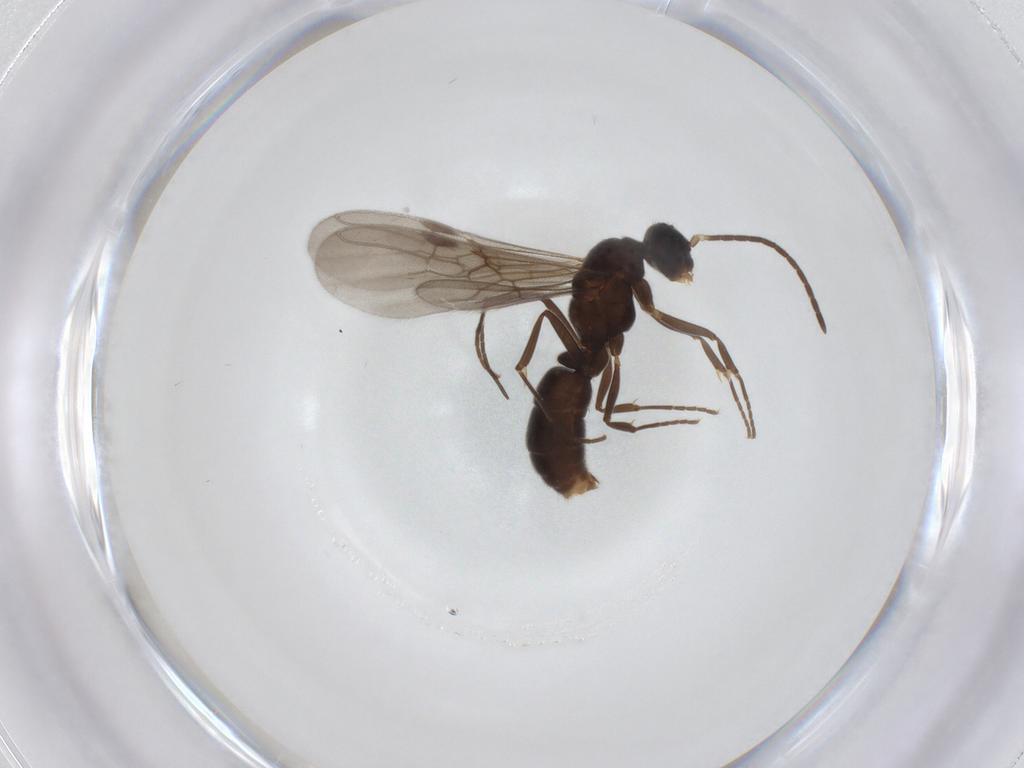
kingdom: Animalia
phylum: Arthropoda
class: Insecta
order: Hymenoptera
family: Formicidae
